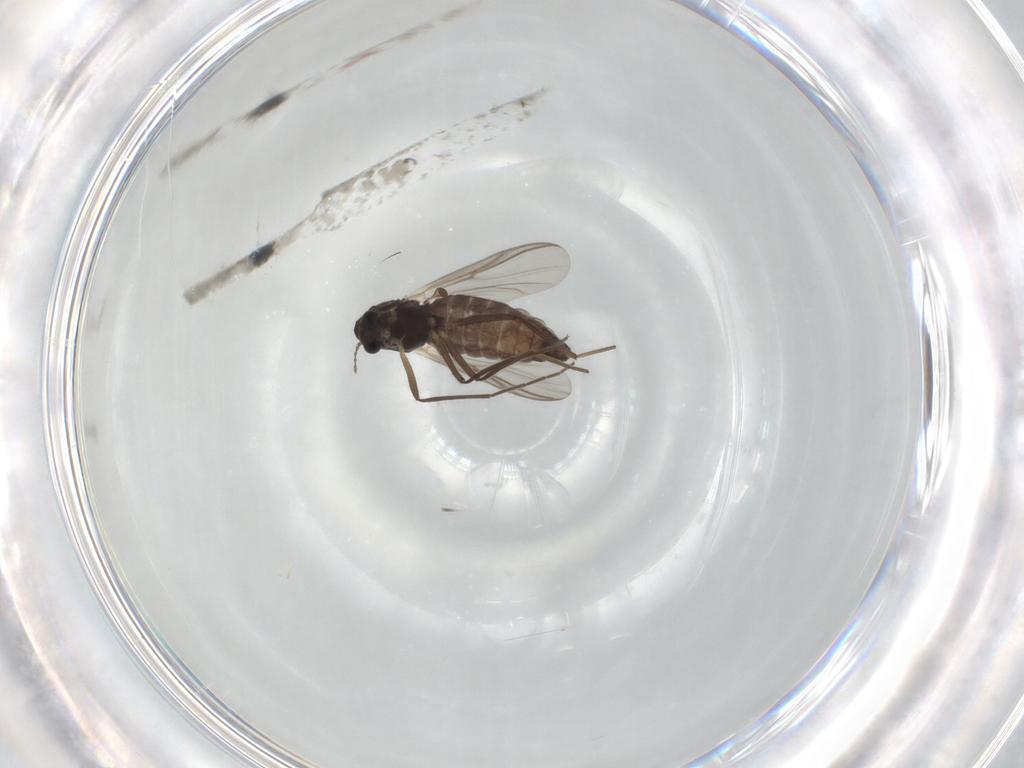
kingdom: Animalia
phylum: Arthropoda
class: Insecta
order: Diptera
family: Chironomidae
